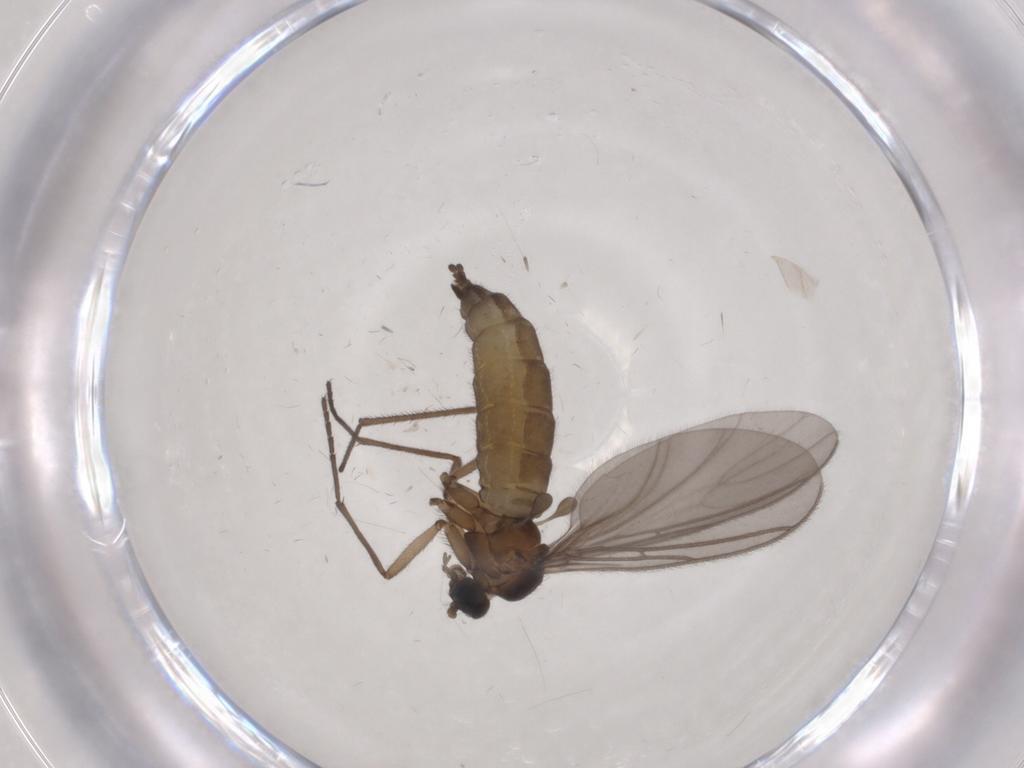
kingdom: Animalia
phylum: Arthropoda
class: Insecta
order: Diptera
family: Sciaridae
